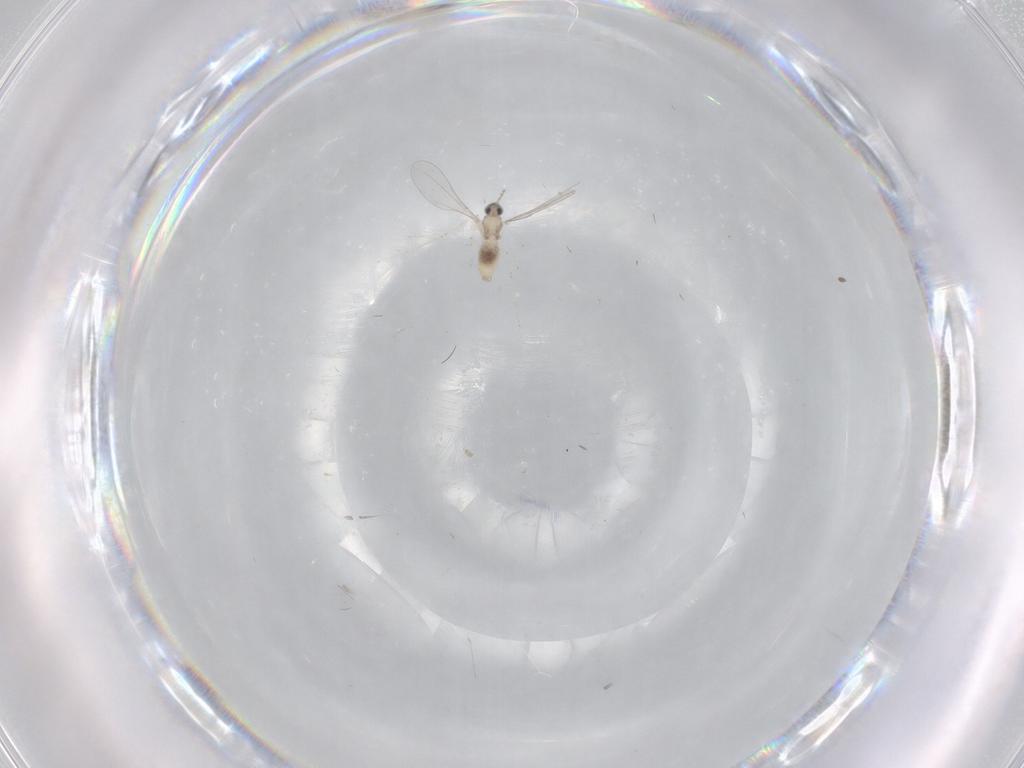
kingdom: Animalia
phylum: Arthropoda
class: Insecta
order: Diptera
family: Cecidomyiidae
